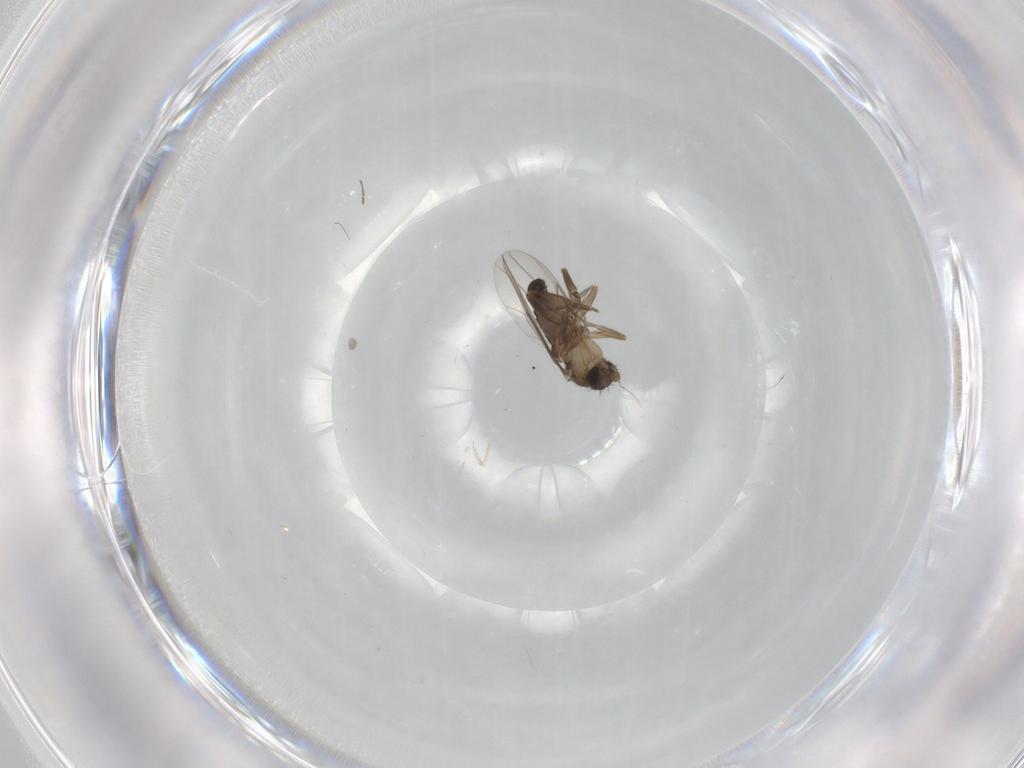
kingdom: Animalia
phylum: Arthropoda
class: Insecta
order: Diptera
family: Phoridae
